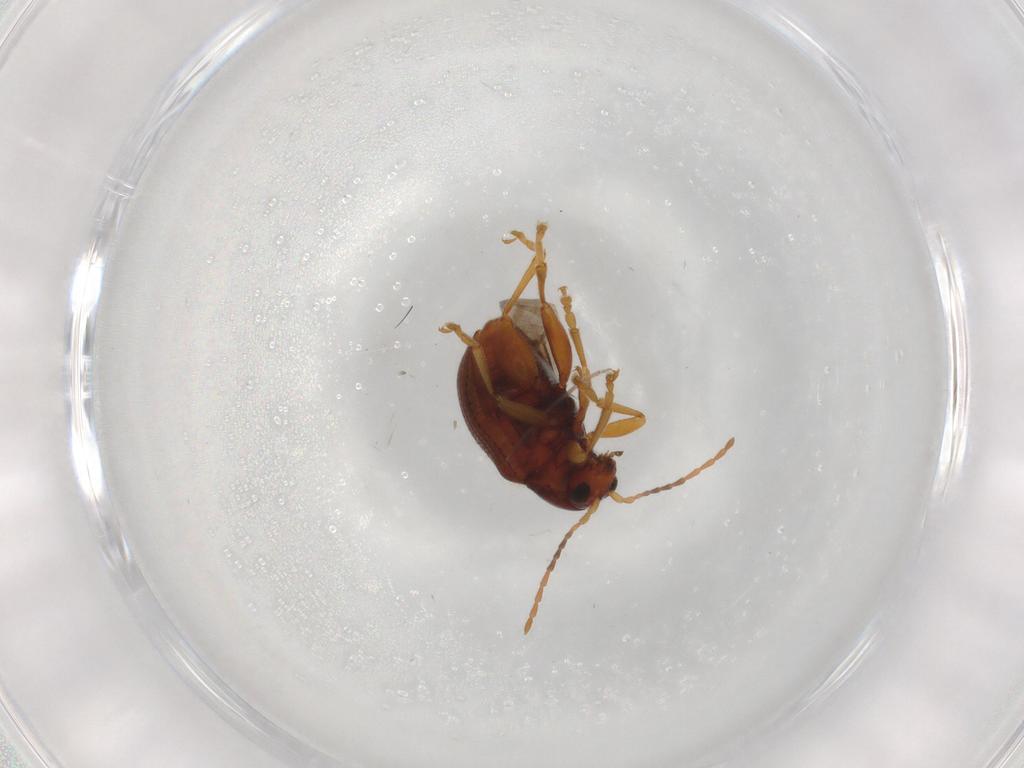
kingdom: Animalia
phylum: Arthropoda
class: Insecta
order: Coleoptera
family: Chrysomelidae
